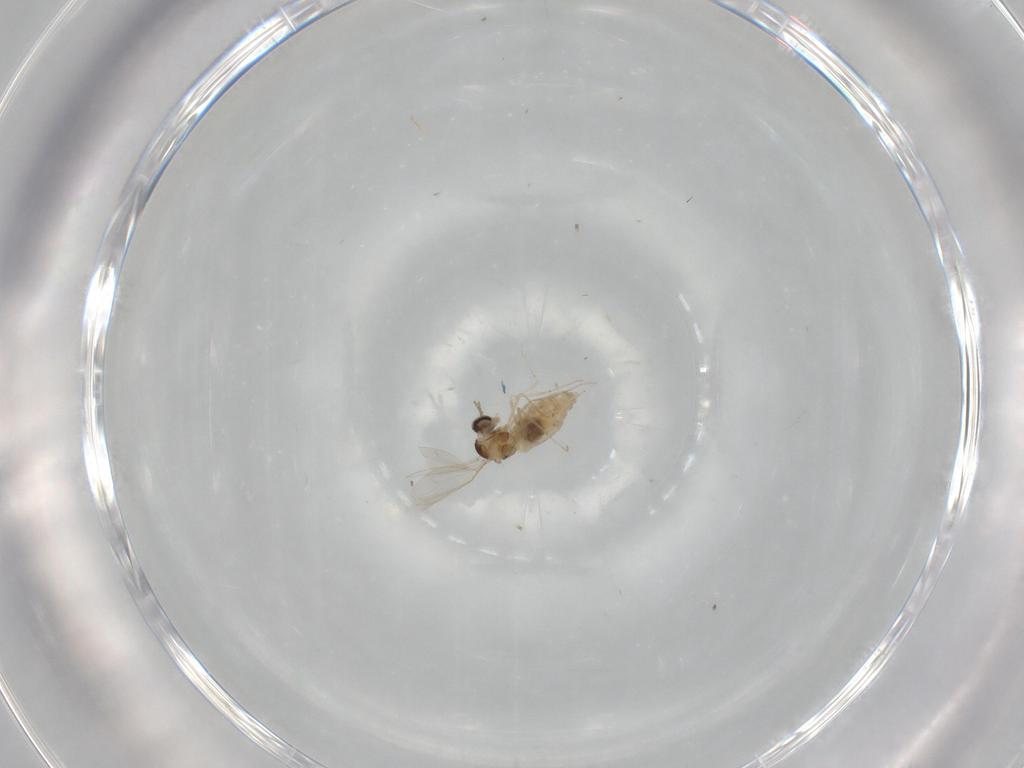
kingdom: Animalia
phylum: Arthropoda
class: Insecta
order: Diptera
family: Cecidomyiidae
